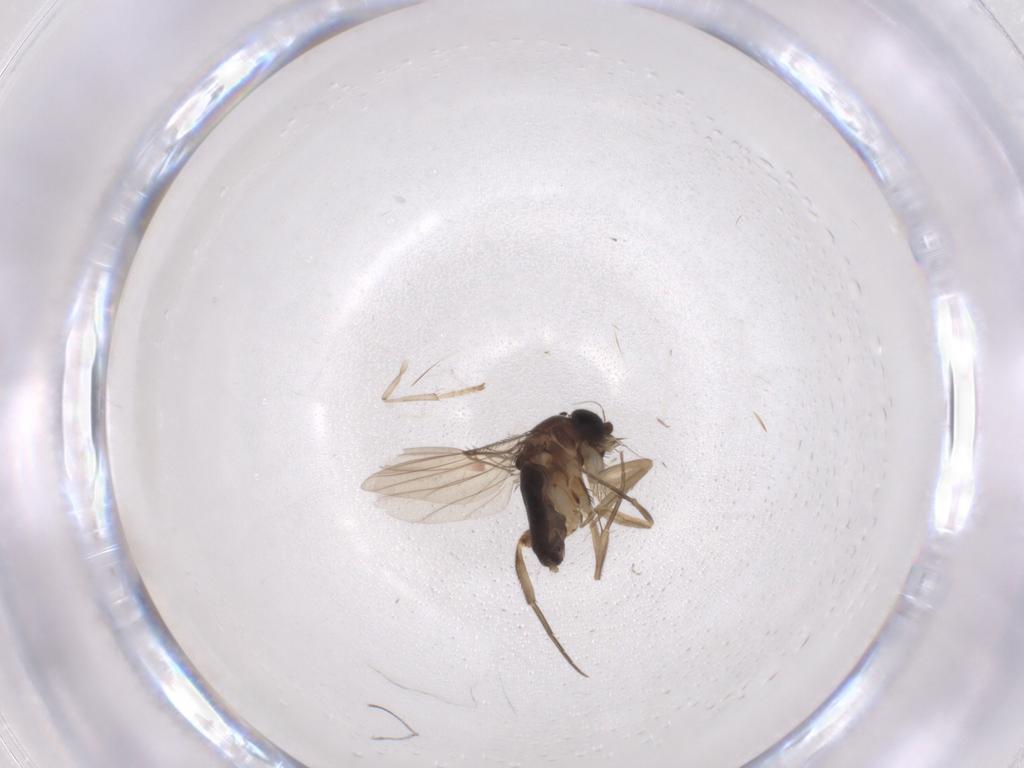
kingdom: Animalia
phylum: Arthropoda
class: Insecta
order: Diptera
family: Phoridae
